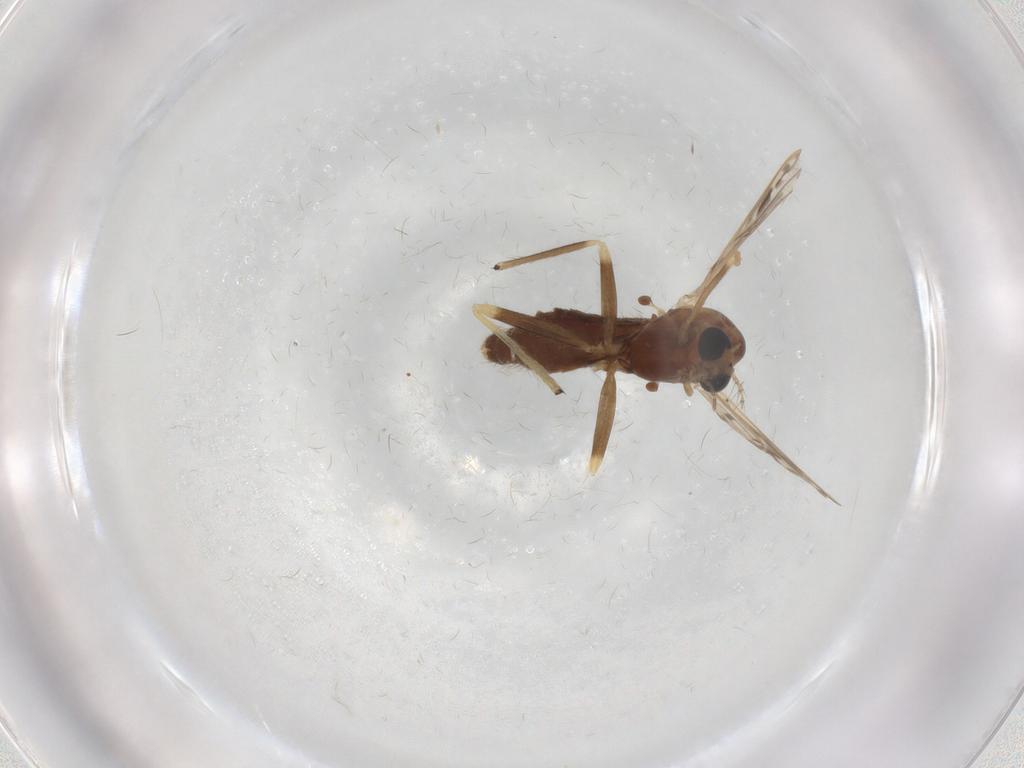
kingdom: Animalia
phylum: Arthropoda
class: Insecta
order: Diptera
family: Chironomidae
